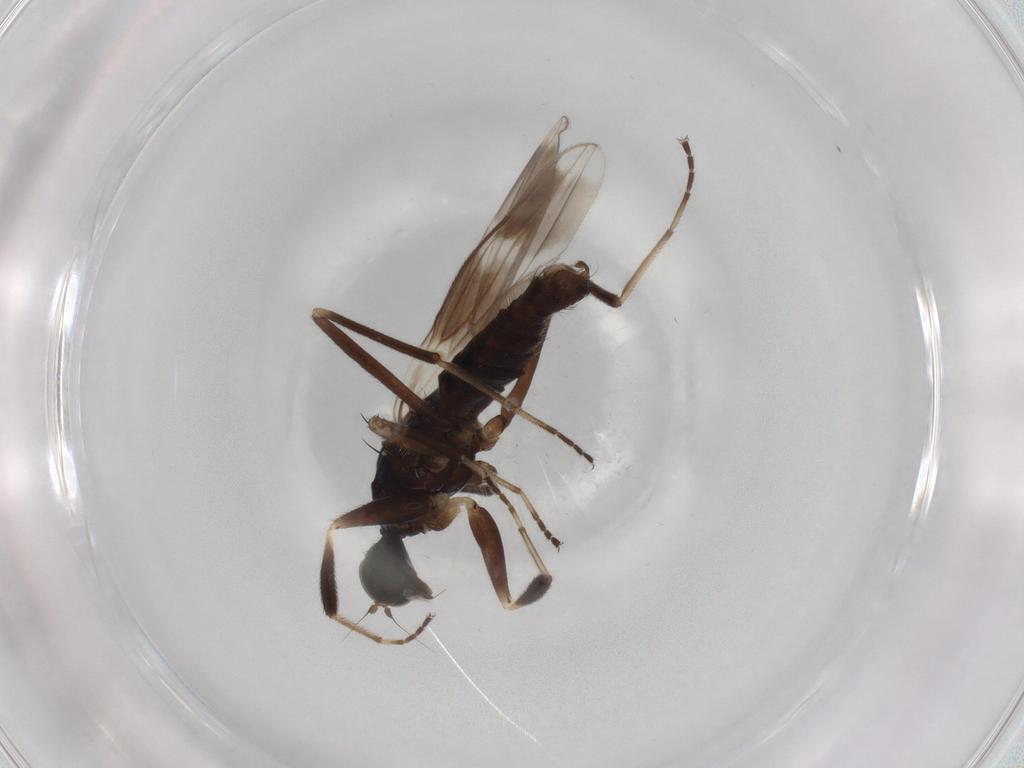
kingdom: Animalia
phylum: Arthropoda
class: Insecta
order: Diptera
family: Hybotidae
